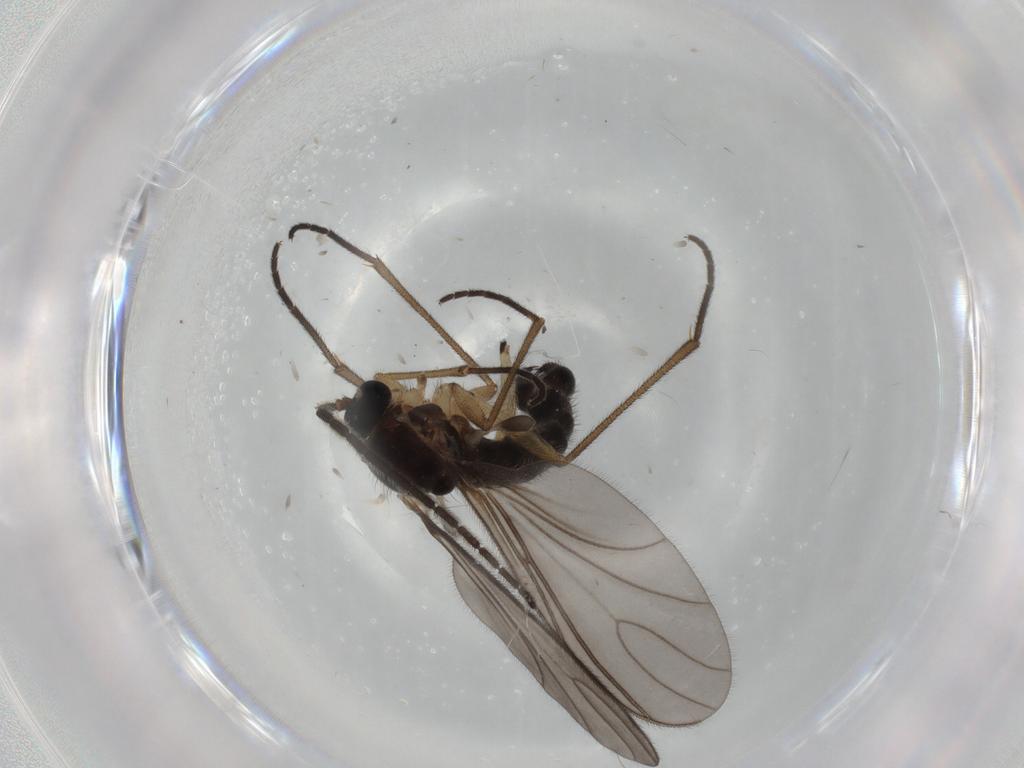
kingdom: Animalia
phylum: Arthropoda
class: Insecta
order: Diptera
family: Sciaridae
